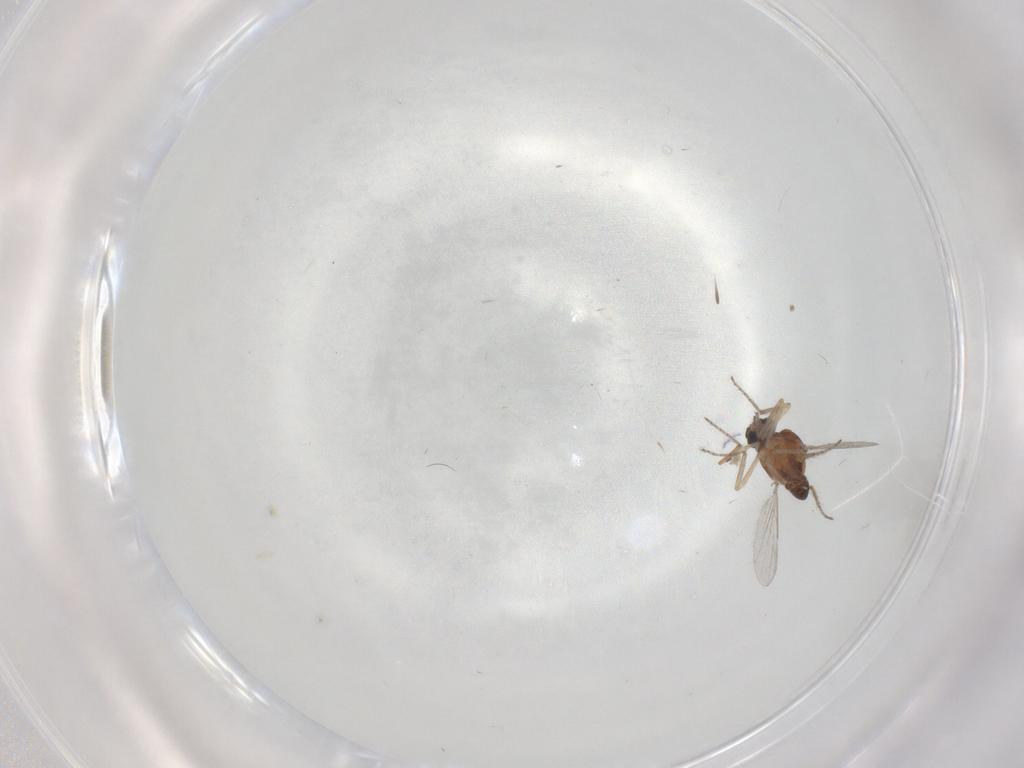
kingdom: Animalia
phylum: Arthropoda
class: Insecta
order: Diptera
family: Ceratopogonidae
